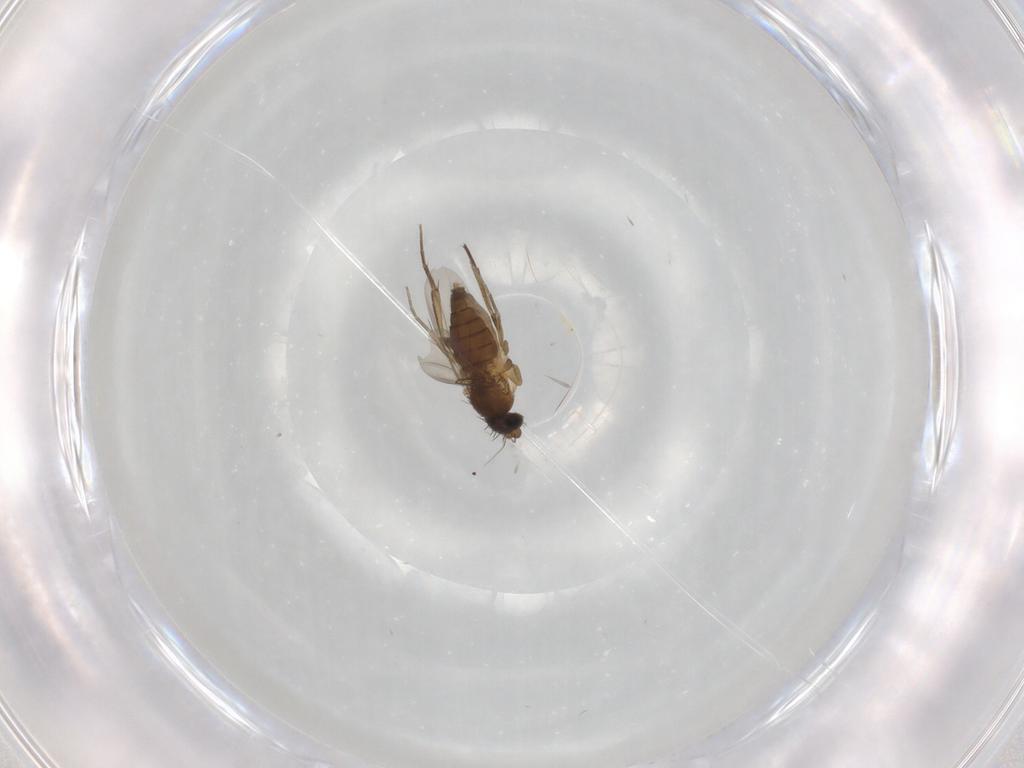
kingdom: Animalia
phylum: Arthropoda
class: Insecta
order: Diptera
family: Phoridae
